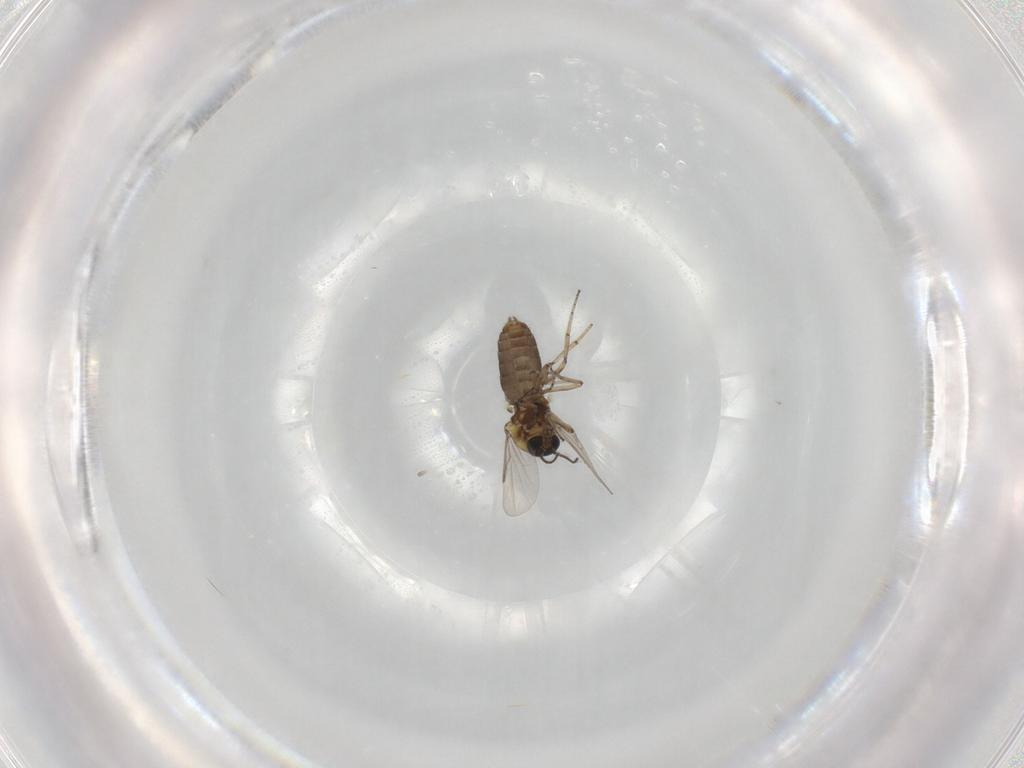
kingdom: Animalia
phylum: Arthropoda
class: Insecta
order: Diptera
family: Ceratopogonidae
